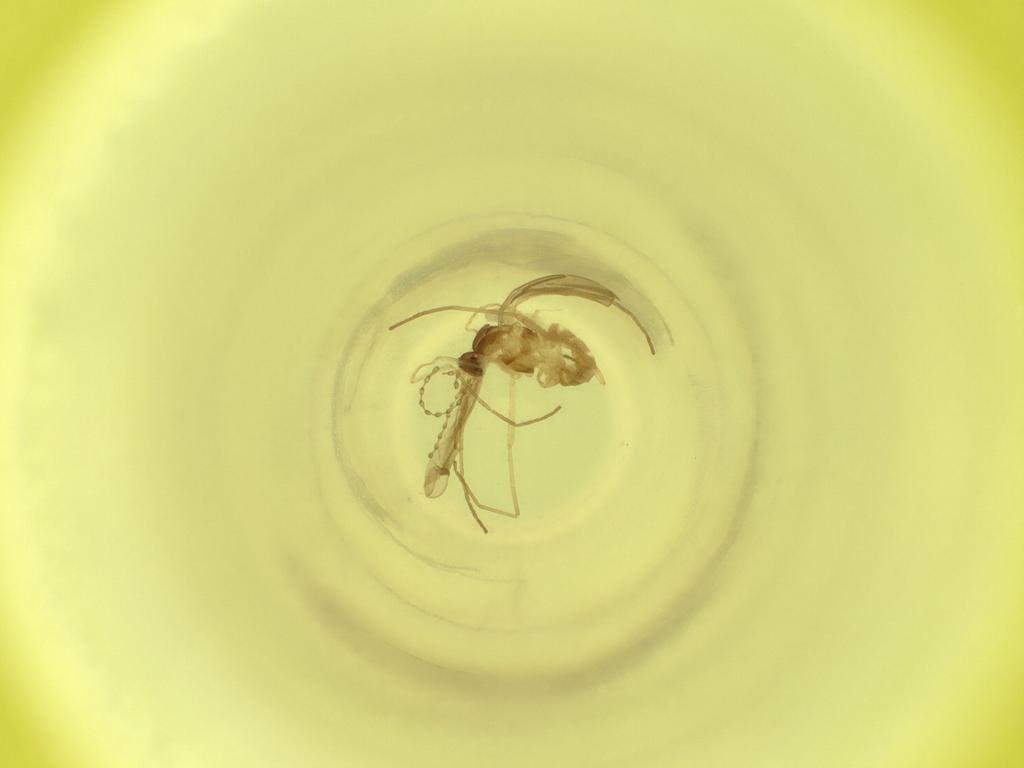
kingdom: Animalia
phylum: Arthropoda
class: Insecta
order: Diptera
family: Cecidomyiidae
